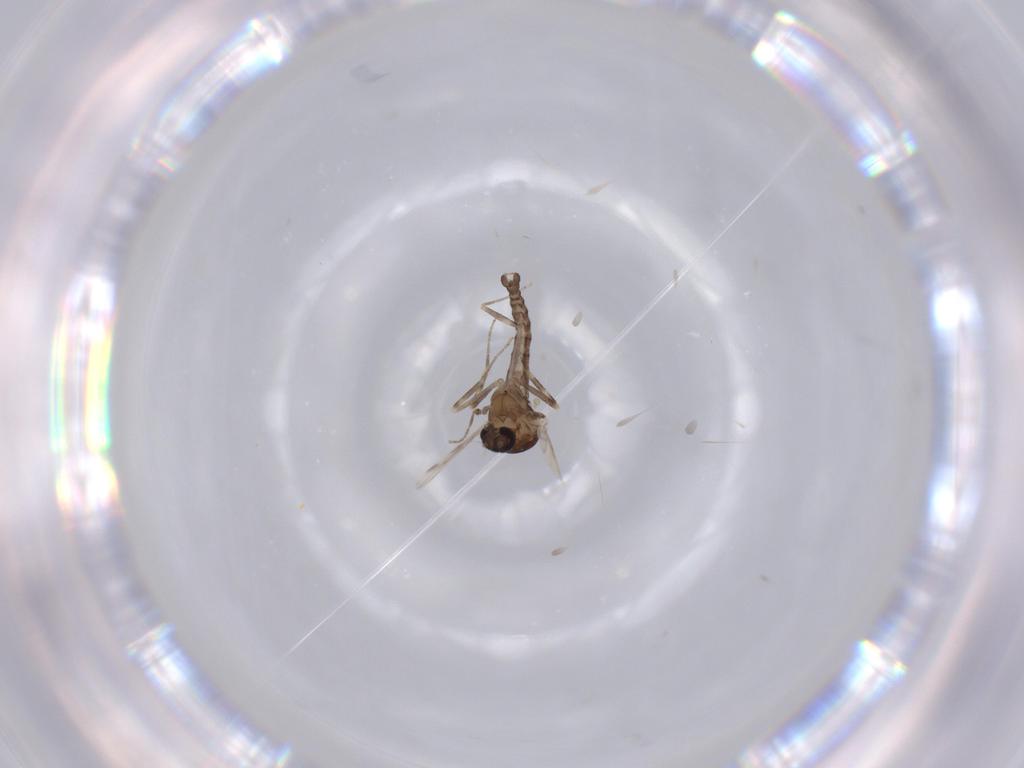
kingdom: Animalia
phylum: Arthropoda
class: Insecta
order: Diptera
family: Ceratopogonidae
